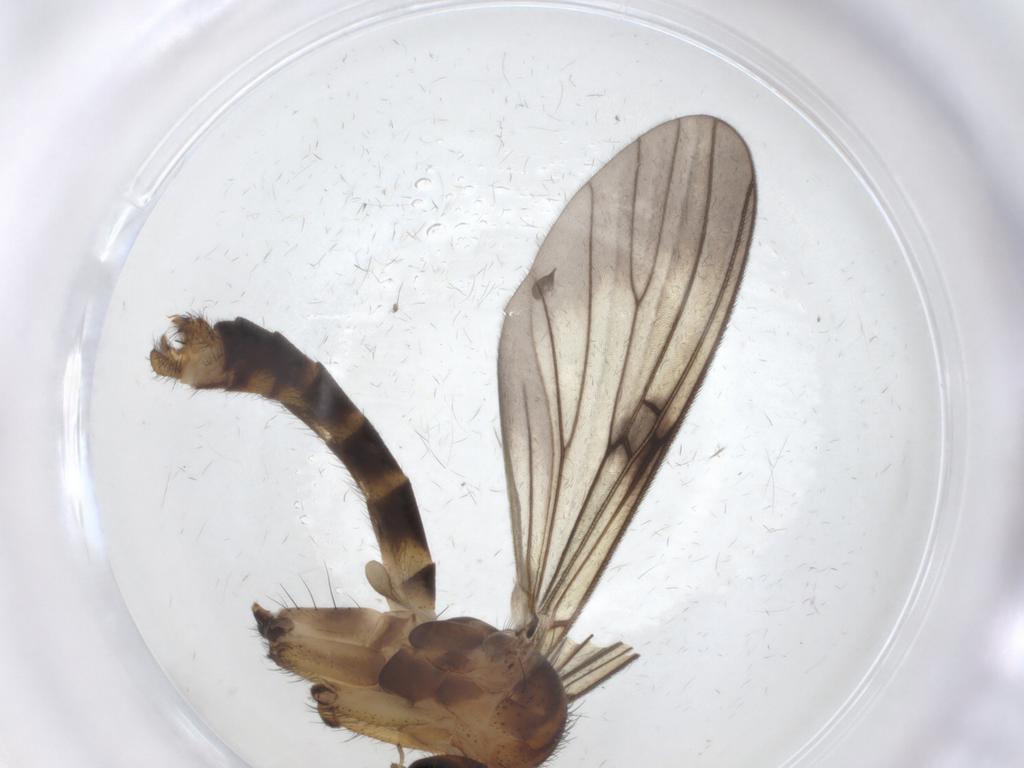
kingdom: Animalia
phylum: Arthropoda
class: Insecta
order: Diptera
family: Mycetophilidae
